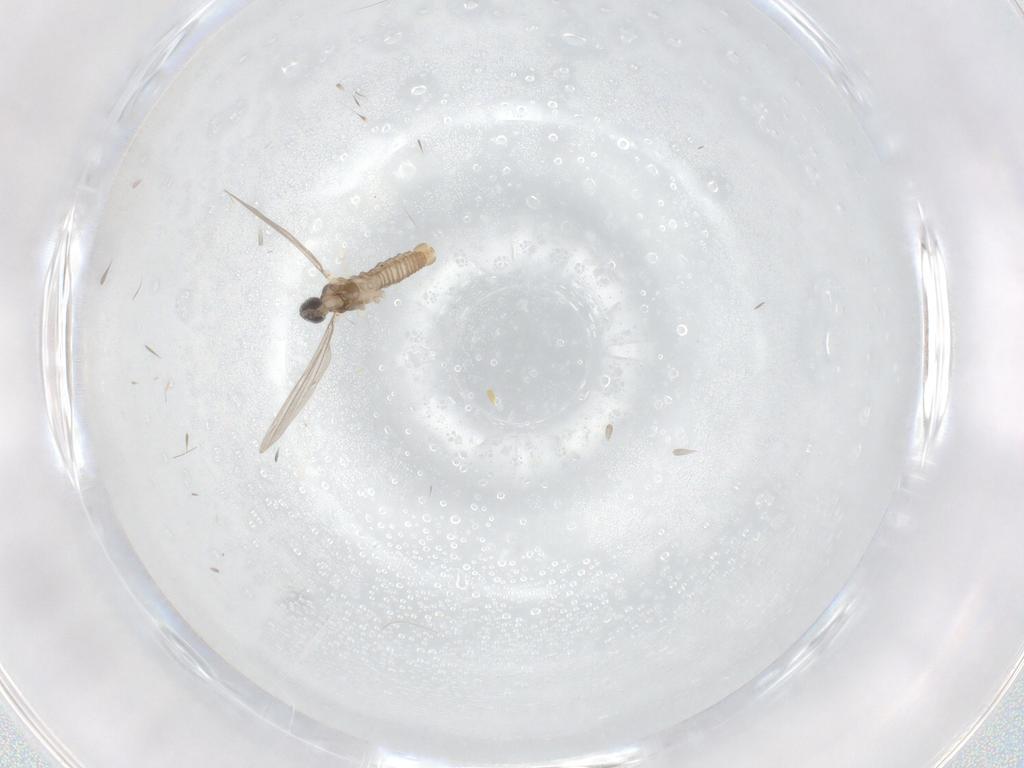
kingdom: Animalia
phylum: Arthropoda
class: Insecta
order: Diptera
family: Cecidomyiidae
